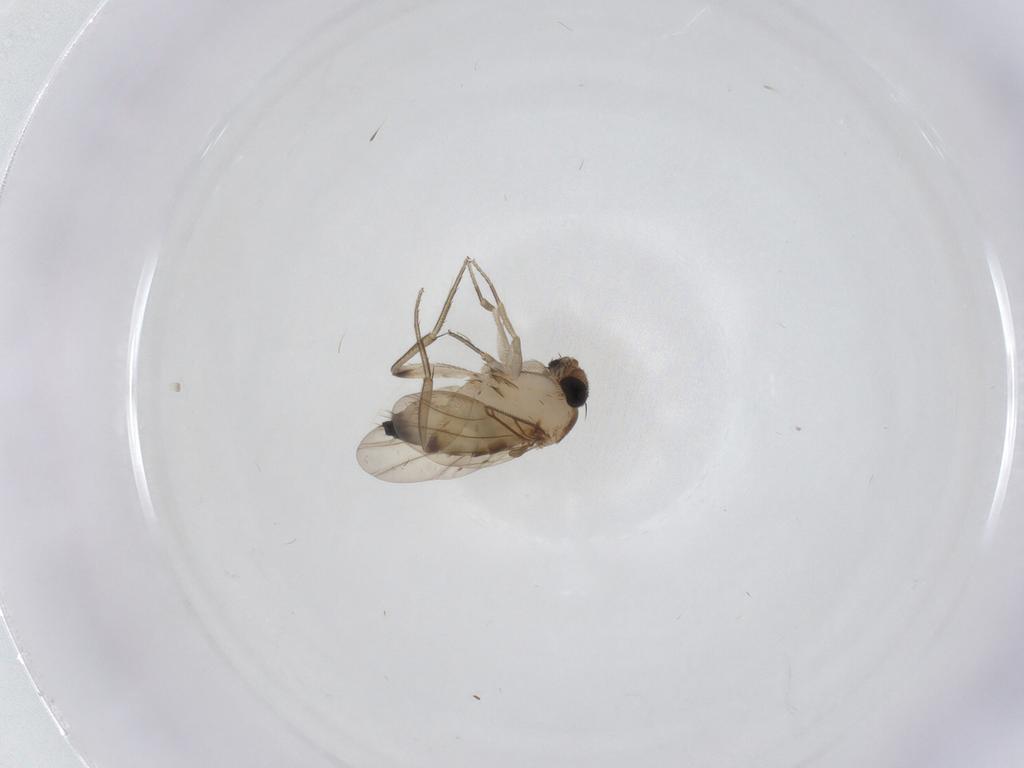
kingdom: Animalia
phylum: Arthropoda
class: Insecta
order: Diptera
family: Phoridae
